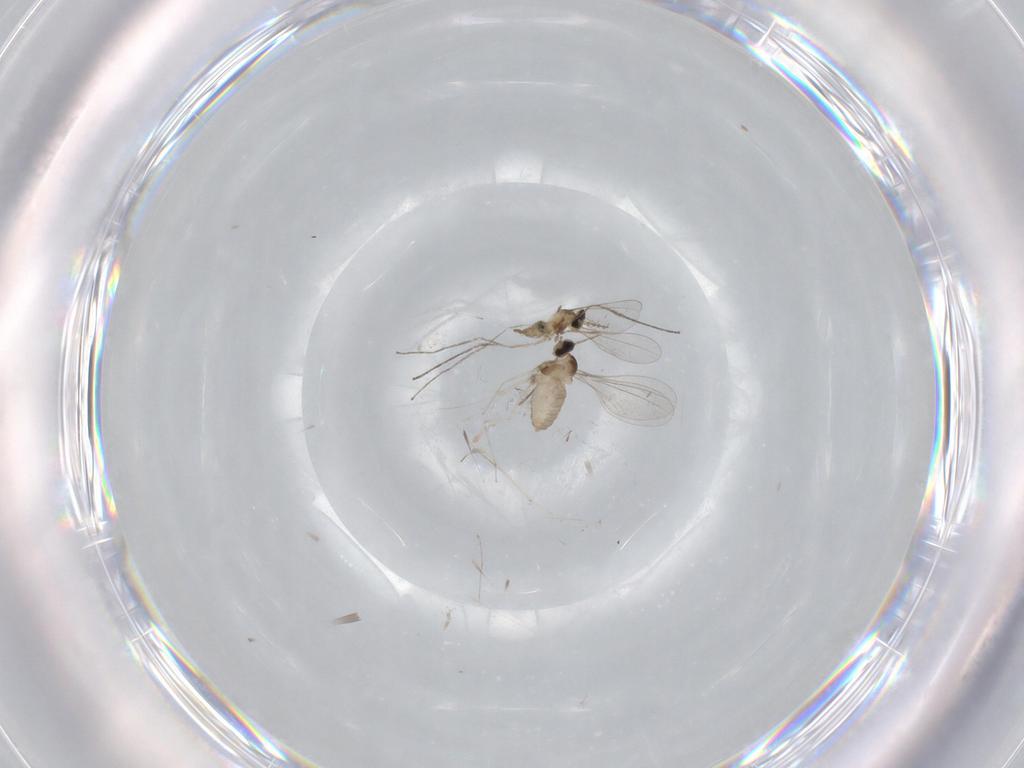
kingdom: Animalia
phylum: Arthropoda
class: Insecta
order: Diptera
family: Cecidomyiidae
